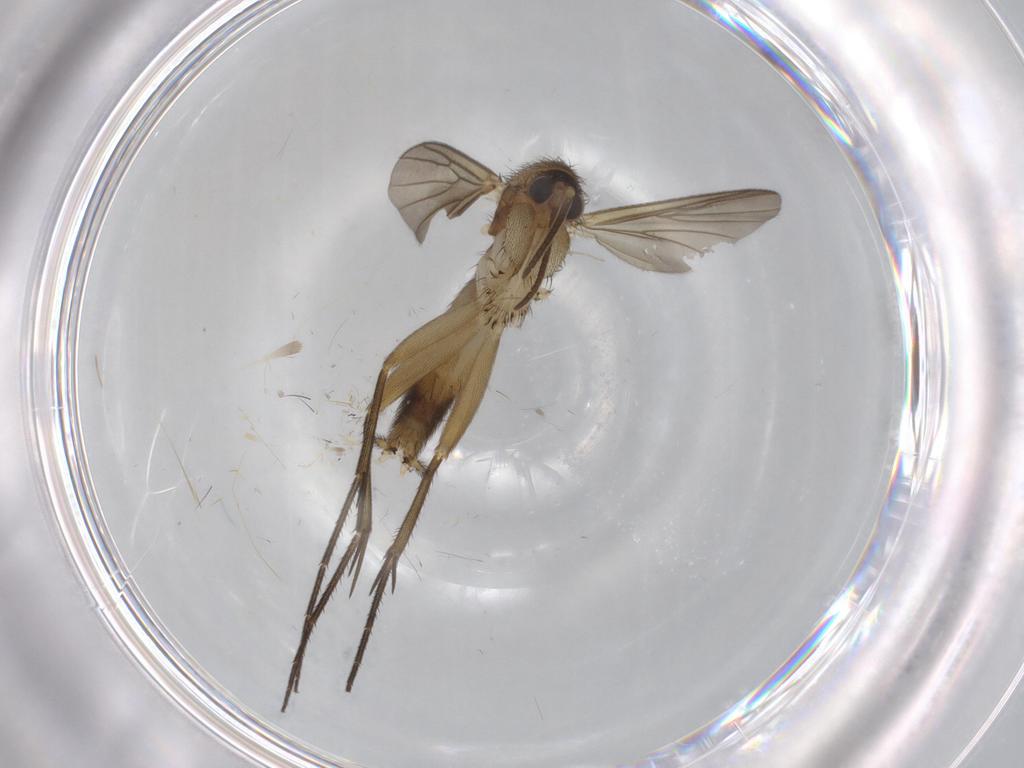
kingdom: Animalia
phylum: Arthropoda
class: Insecta
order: Diptera
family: Mycetophilidae
